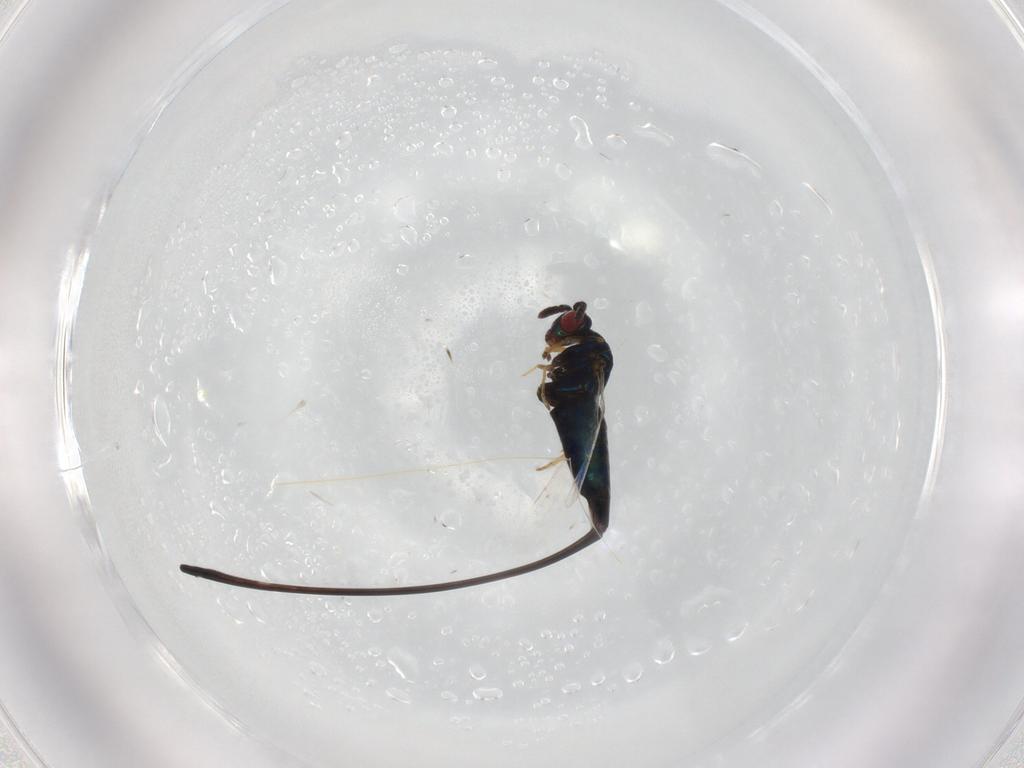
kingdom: Animalia
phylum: Arthropoda
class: Insecta
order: Hymenoptera
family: Pteromalidae
